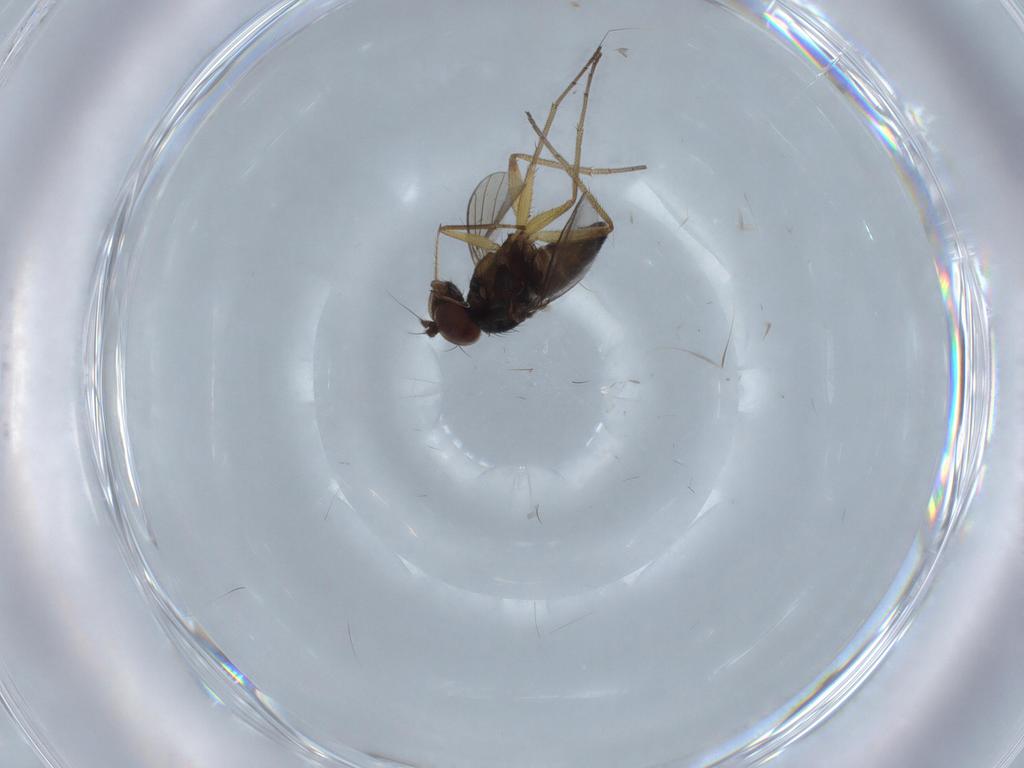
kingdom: Animalia
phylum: Arthropoda
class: Insecta
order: Diptera
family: Dolichopodidae
